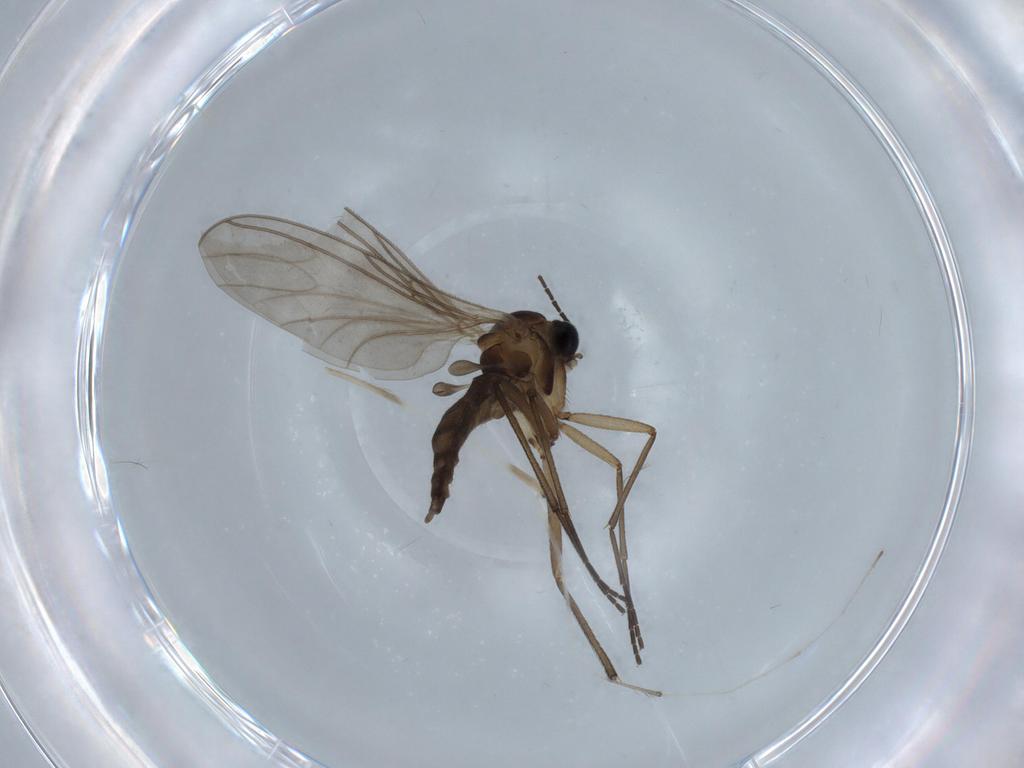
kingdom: Animalia
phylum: Arthropoda
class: Insecta
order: Diptera
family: Sciaridae
